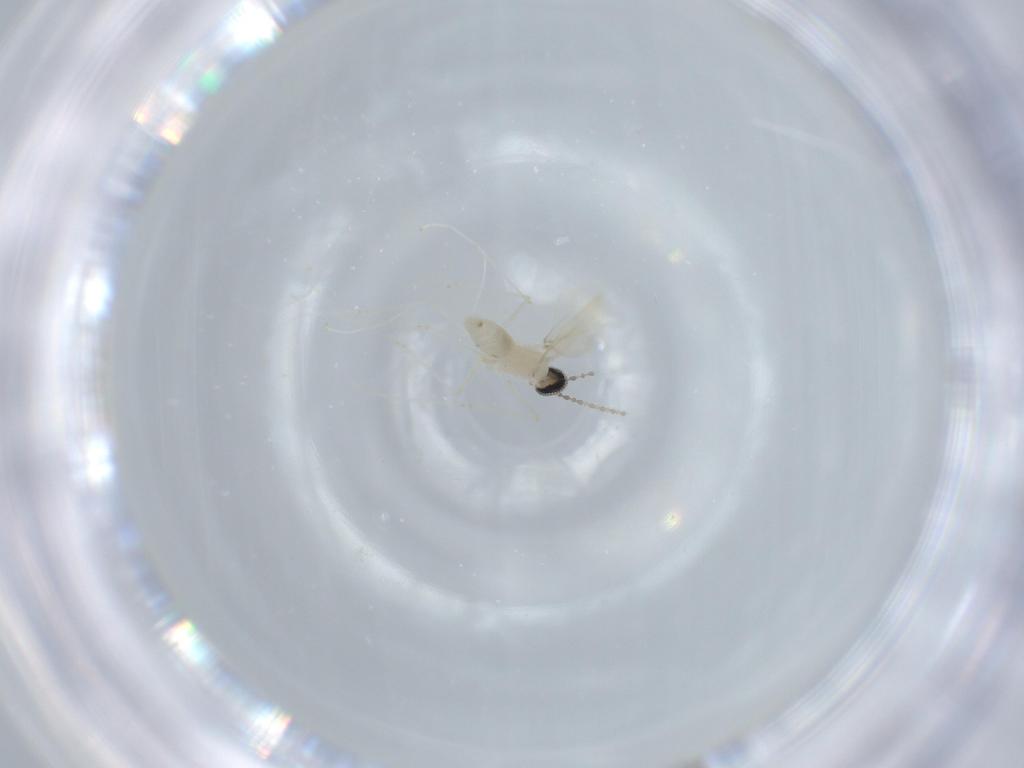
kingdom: Animalia
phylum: Arthropoda
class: Insecta
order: Diptera
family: Cecidomyiidae
